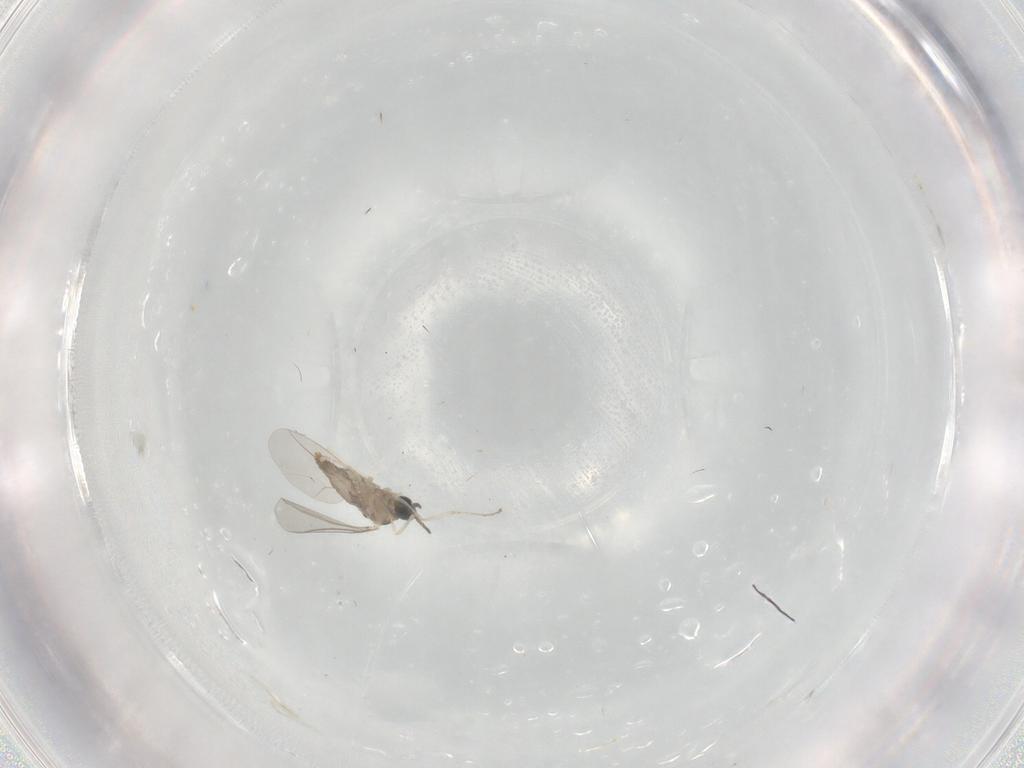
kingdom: Animalia
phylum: Arthropoda
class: Insecta
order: Diptera
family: Cecidomyiidae
